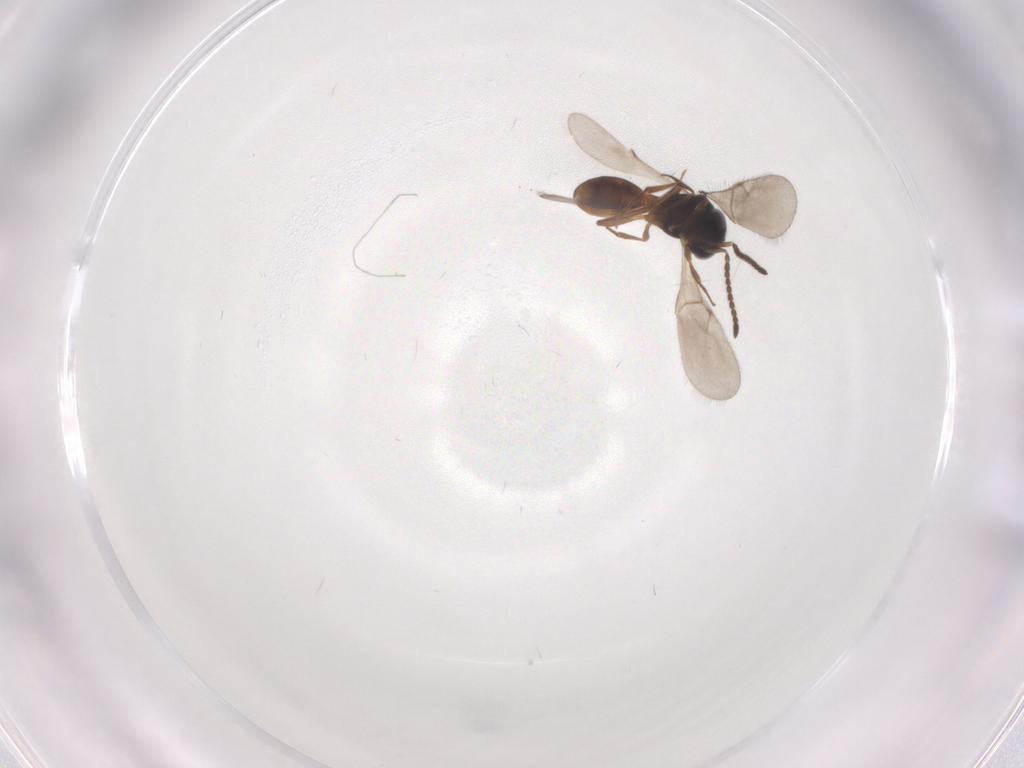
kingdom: Animalia
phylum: Arthropoda
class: Insecta
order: Hymenoptera
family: Scelionidae
